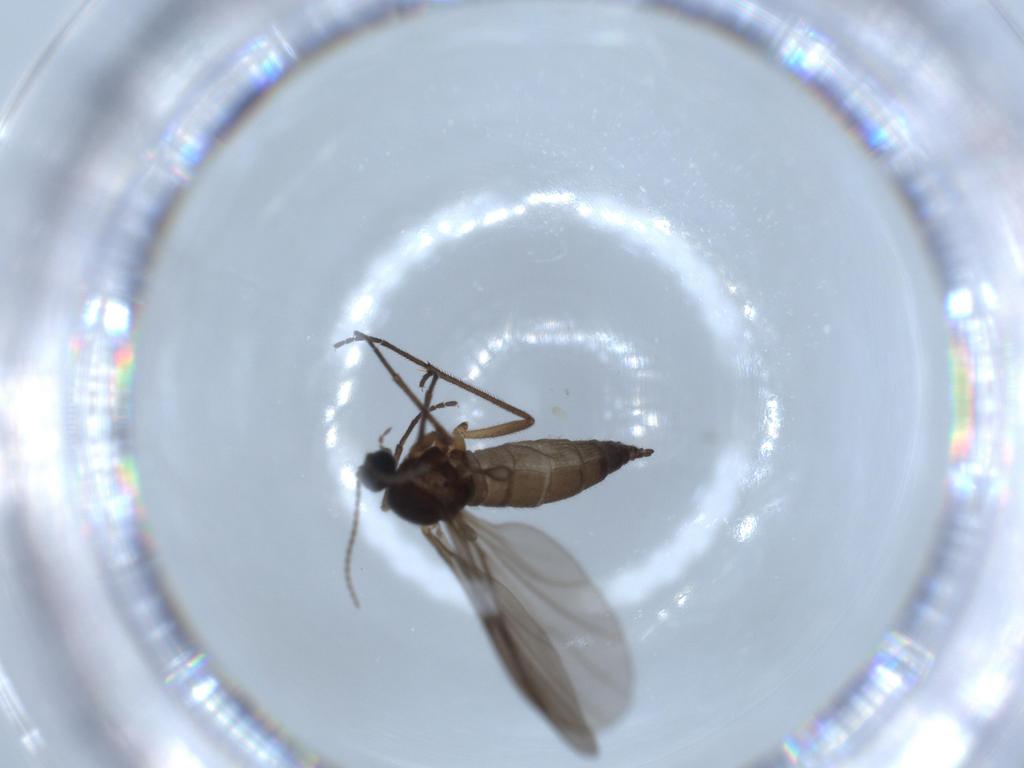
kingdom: Animalia
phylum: Arthropoda
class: Insecta
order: Diptera
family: Sciaridae
